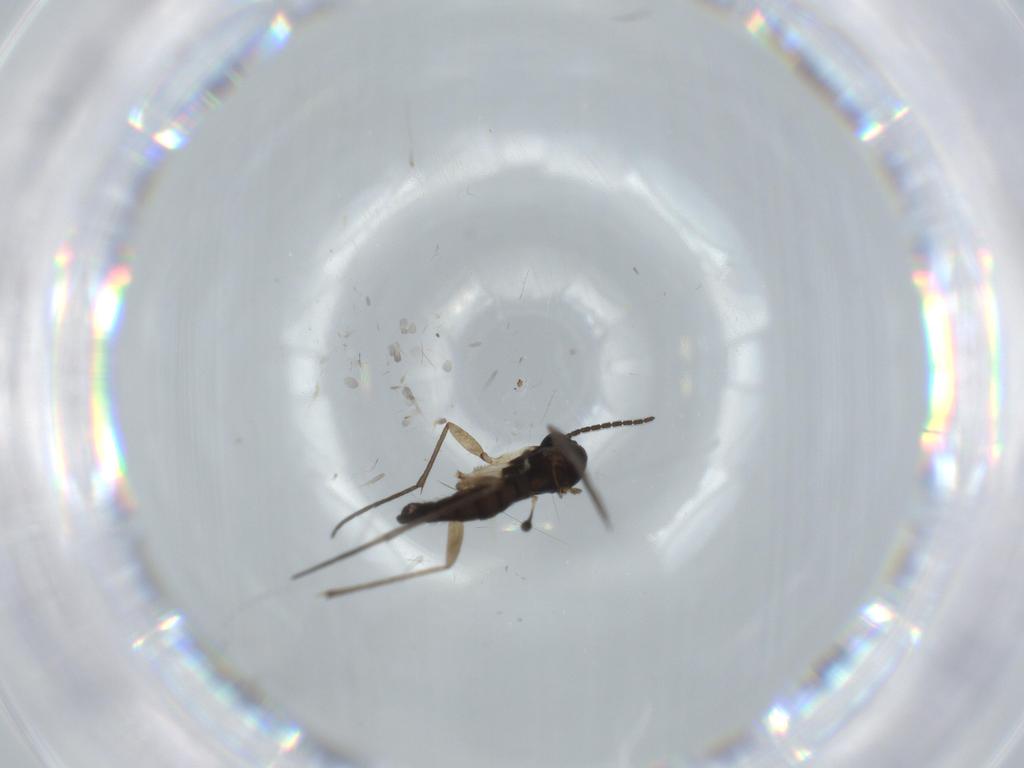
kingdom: Animalia
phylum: Arthropoda
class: Insecta
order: Diptera
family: Sciaridae
